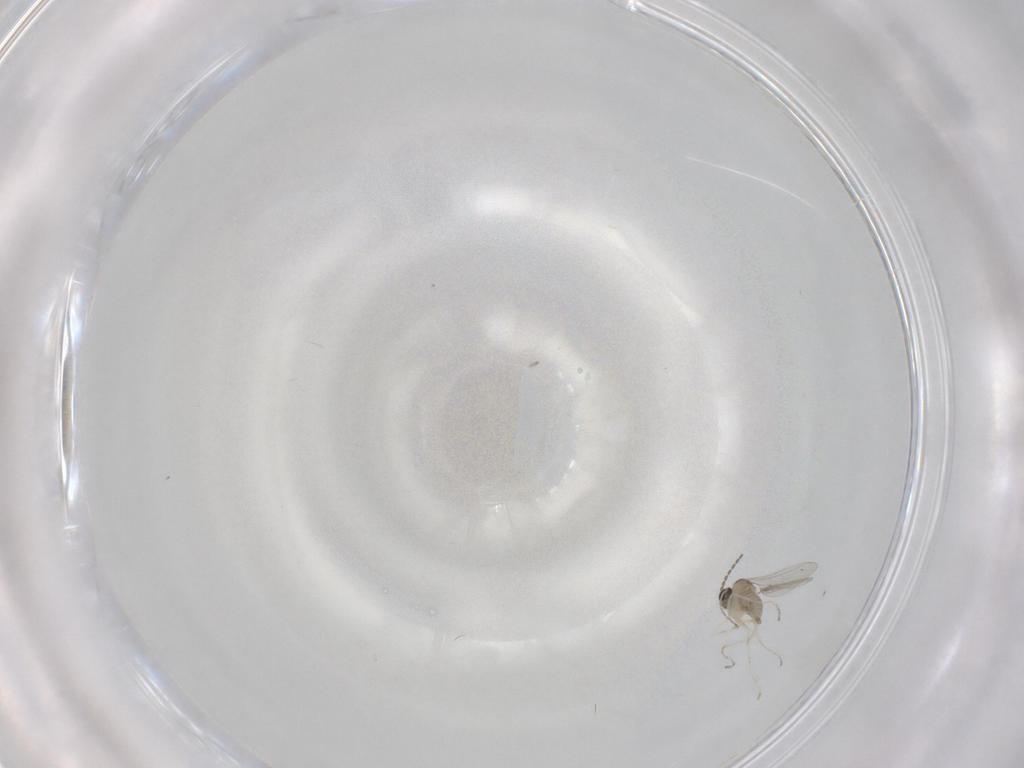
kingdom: Animalia
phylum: Arthropoda
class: Insecta
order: Diptera
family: Cecidomyiidae
